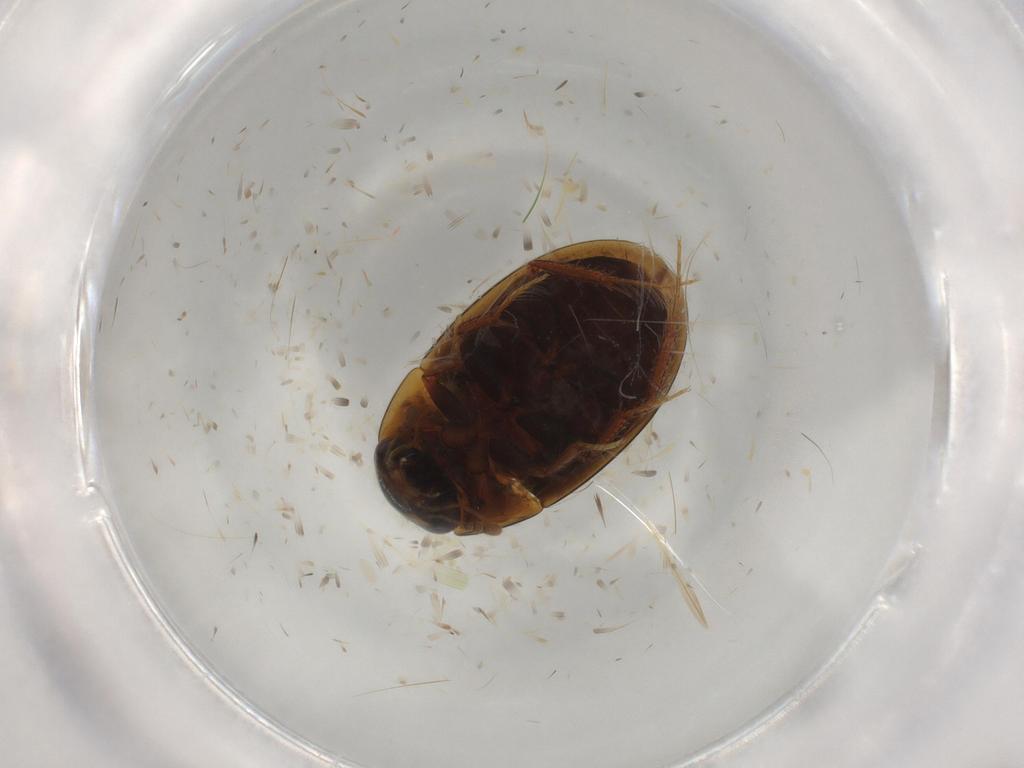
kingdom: Animalia
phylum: Arthropoda
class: Insecta
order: Coleoptera
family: Hydrophilidae
